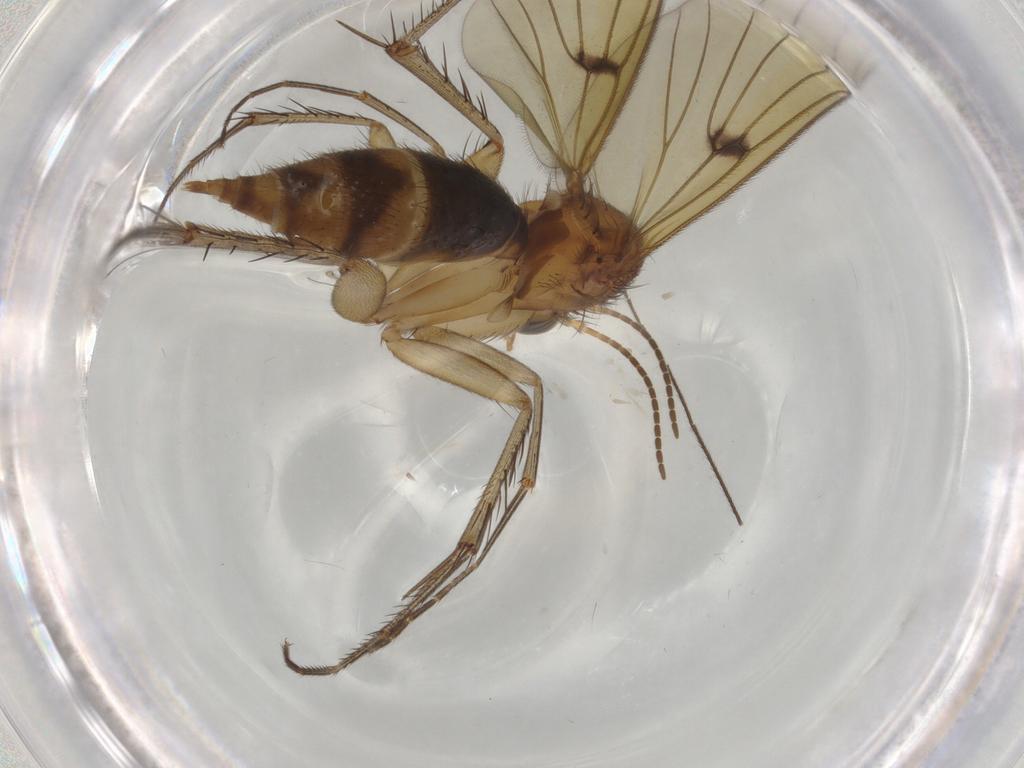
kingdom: Animalia
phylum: Arthropoda
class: Insecta
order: Diptera
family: Mycetophilidae
